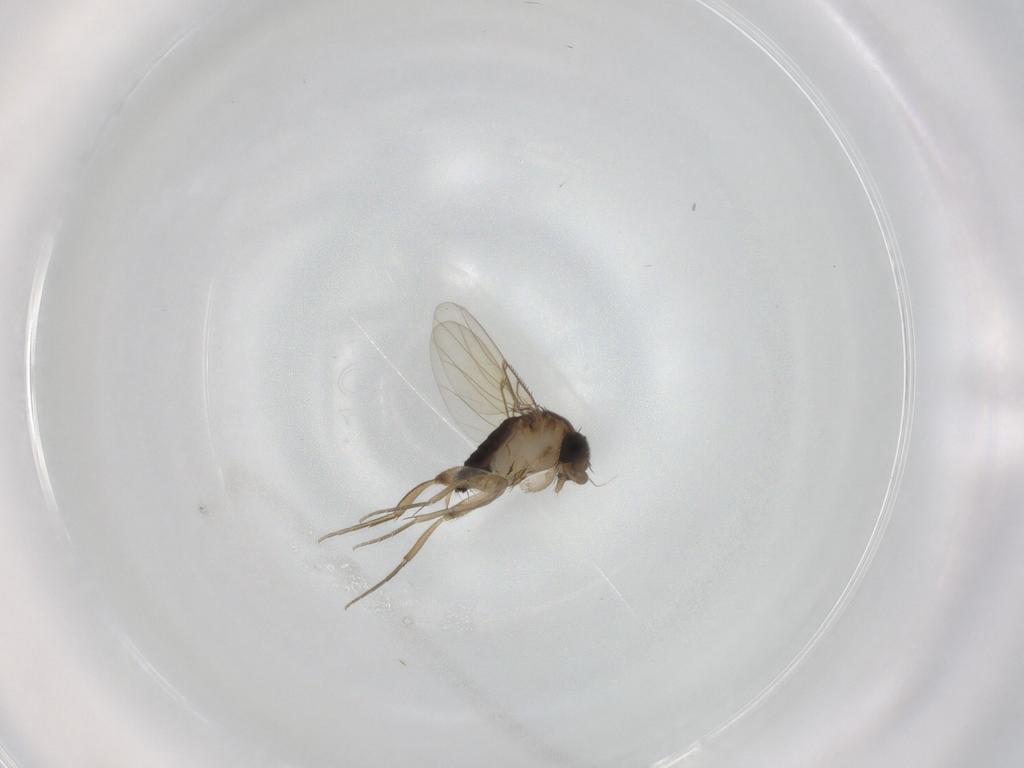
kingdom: Animalia
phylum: Arthropoda
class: Insecta
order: Diptera
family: Phoridae
